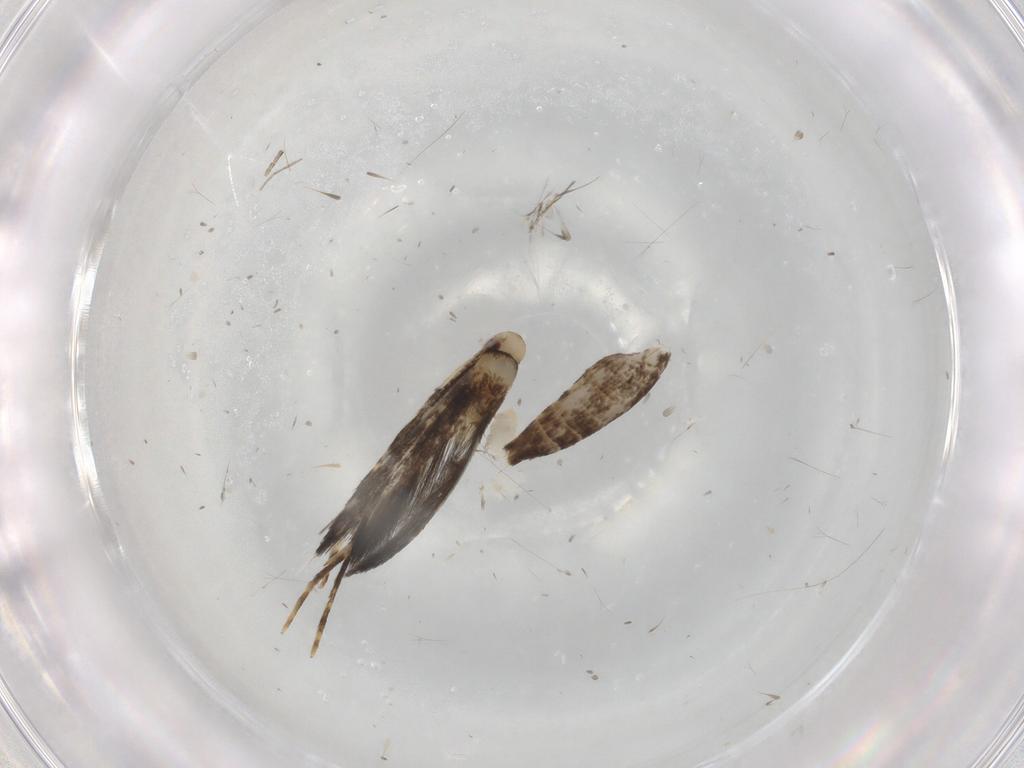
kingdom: Animalia
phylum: Arthropoda
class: Insecta
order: Lepidoptera
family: Gracillariidae
